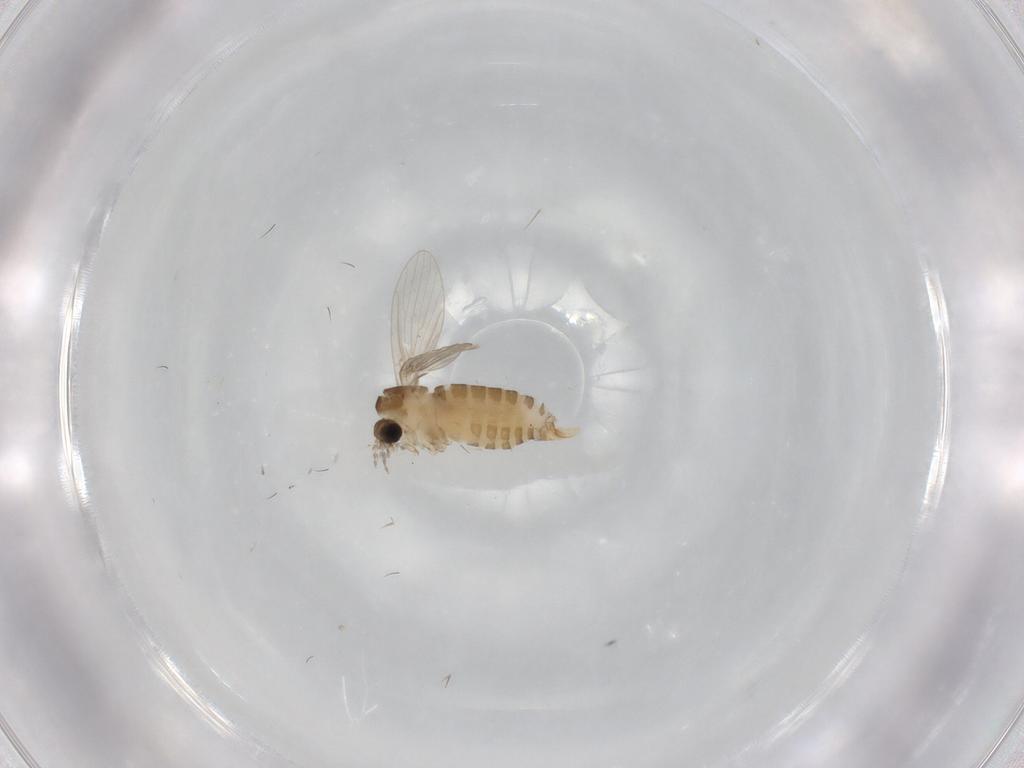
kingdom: Animalia
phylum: Arthropoda
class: Insecta
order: Diptera
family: Psychodidae
